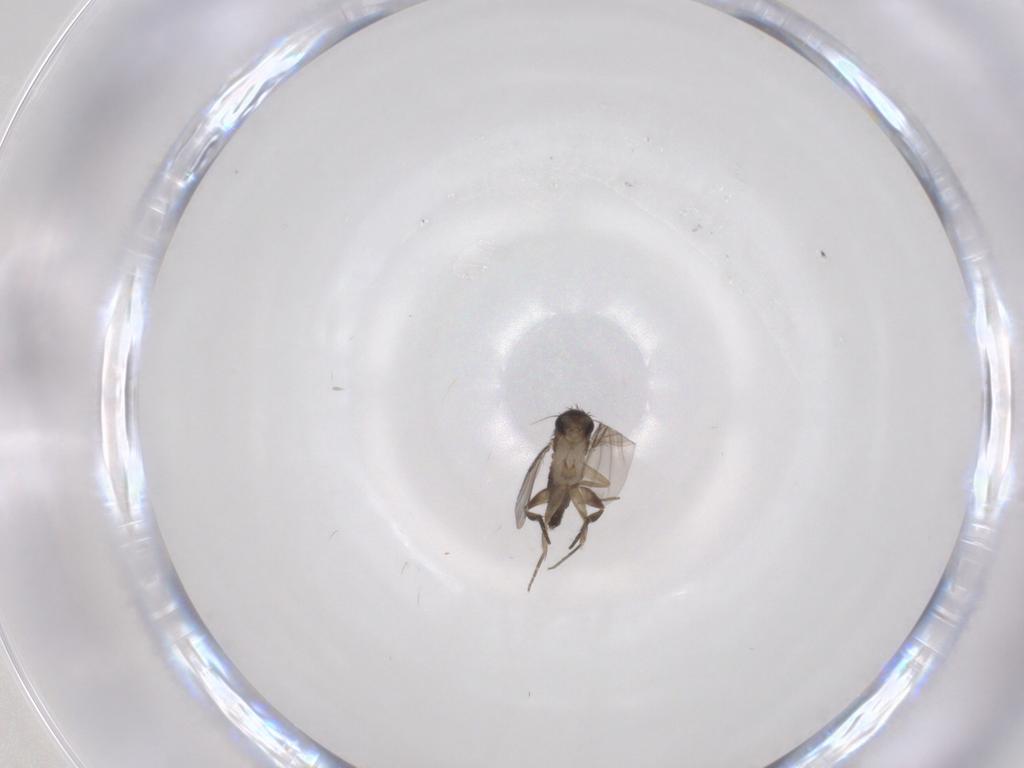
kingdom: Animalia
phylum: Arthropoda
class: Insecta
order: Diptera
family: Phoridae
